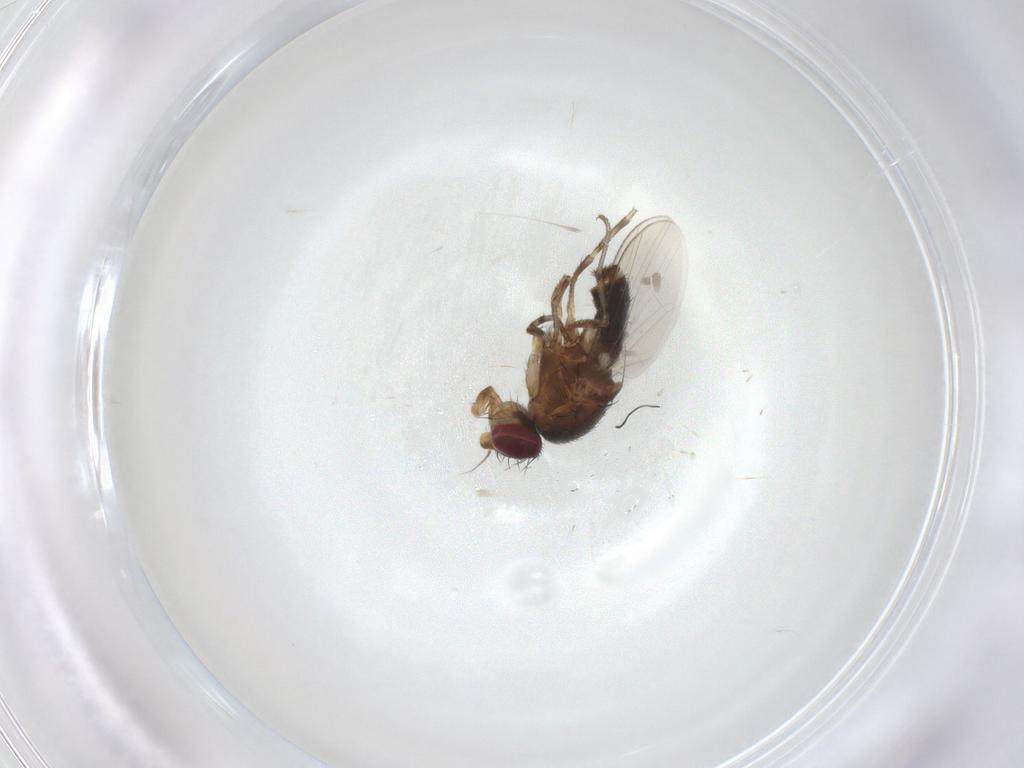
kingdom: Animalia
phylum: Arthropoda
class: Insecta
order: Diptera
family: Heleomyzidae
